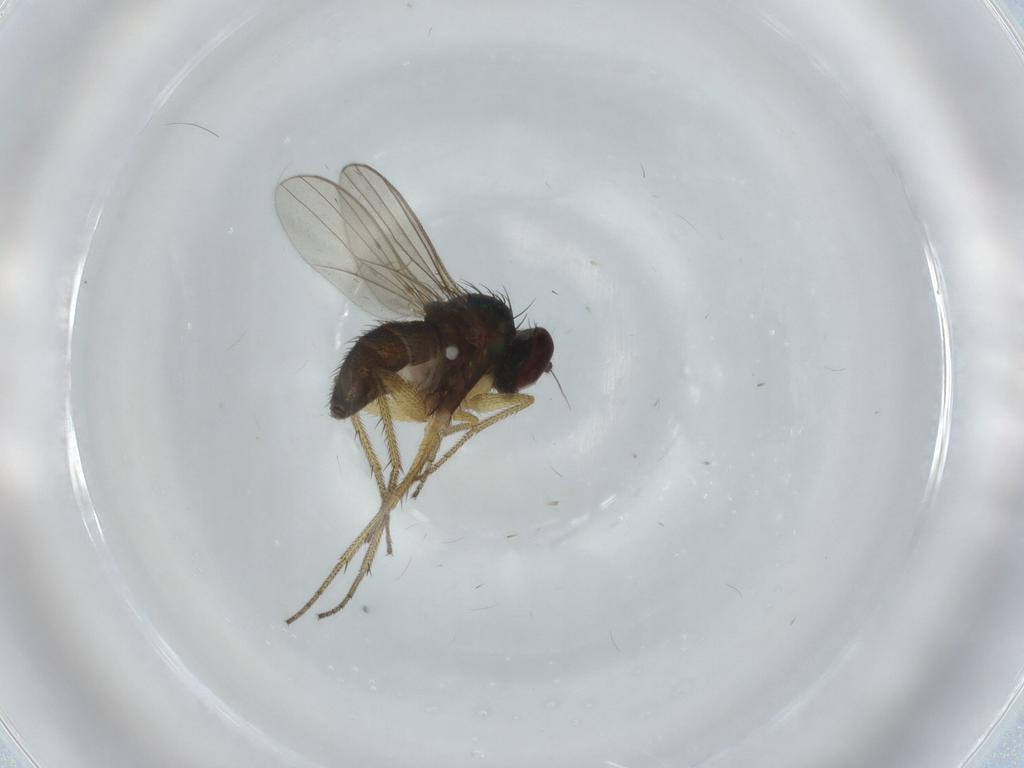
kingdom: Animalia
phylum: Arthropoda
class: Insecta
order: Diptera
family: Dolichopodidae
